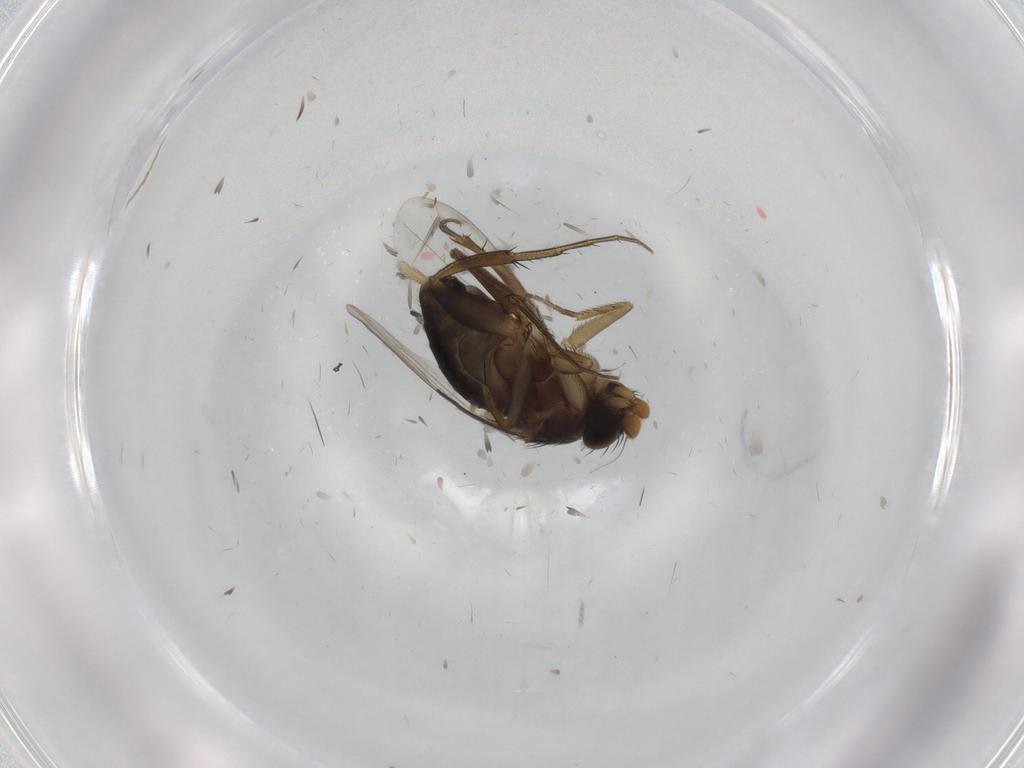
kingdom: Animalia
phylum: Arthropoda
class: Insecta
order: Diptera
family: Phoridae
